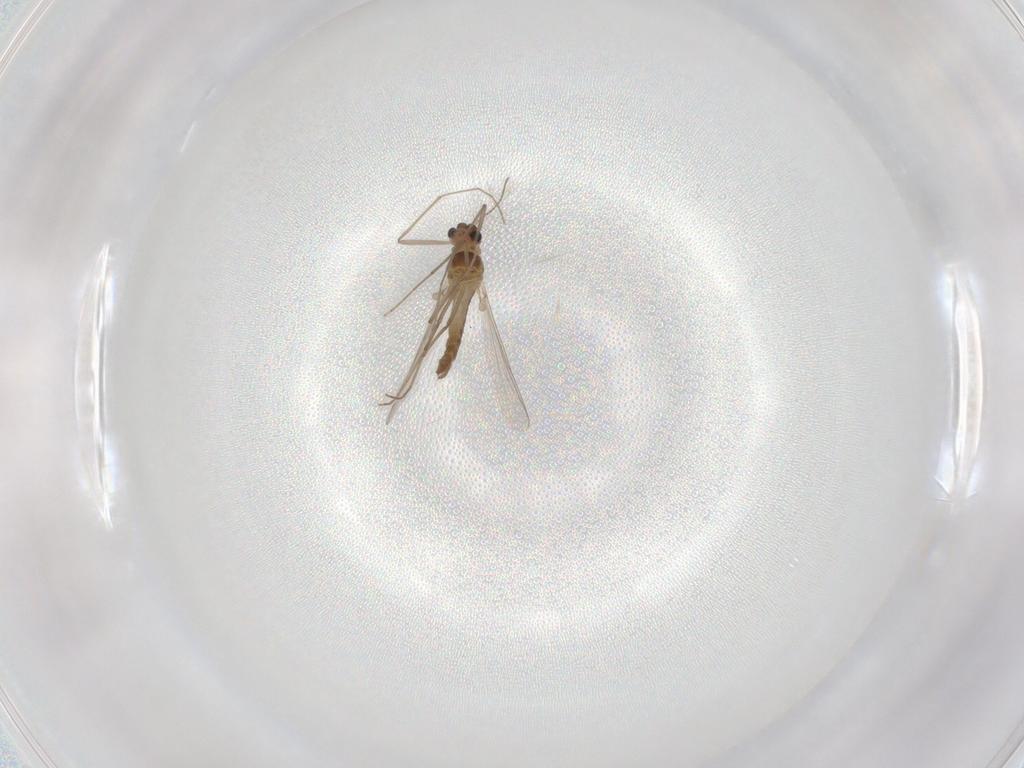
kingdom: Animalia
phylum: Arthropoda
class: Insecta
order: Diptera
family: Chironomidae
